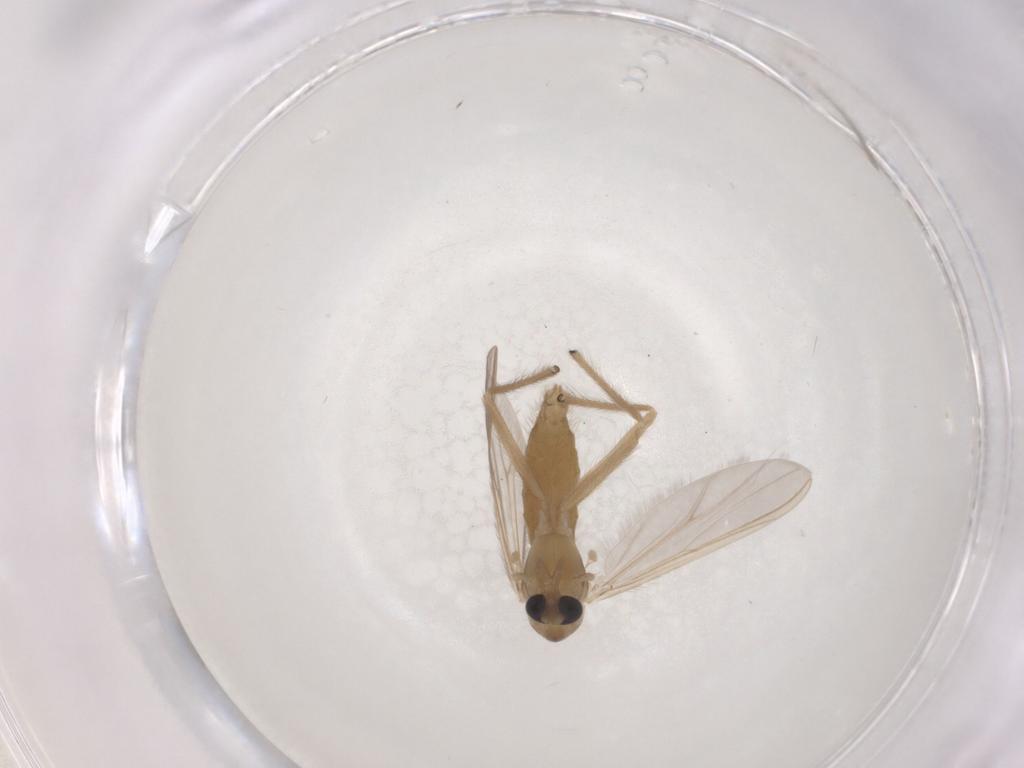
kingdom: Animalia
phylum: Arthropoda
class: Insecta
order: Diptera
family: Chironomidae
